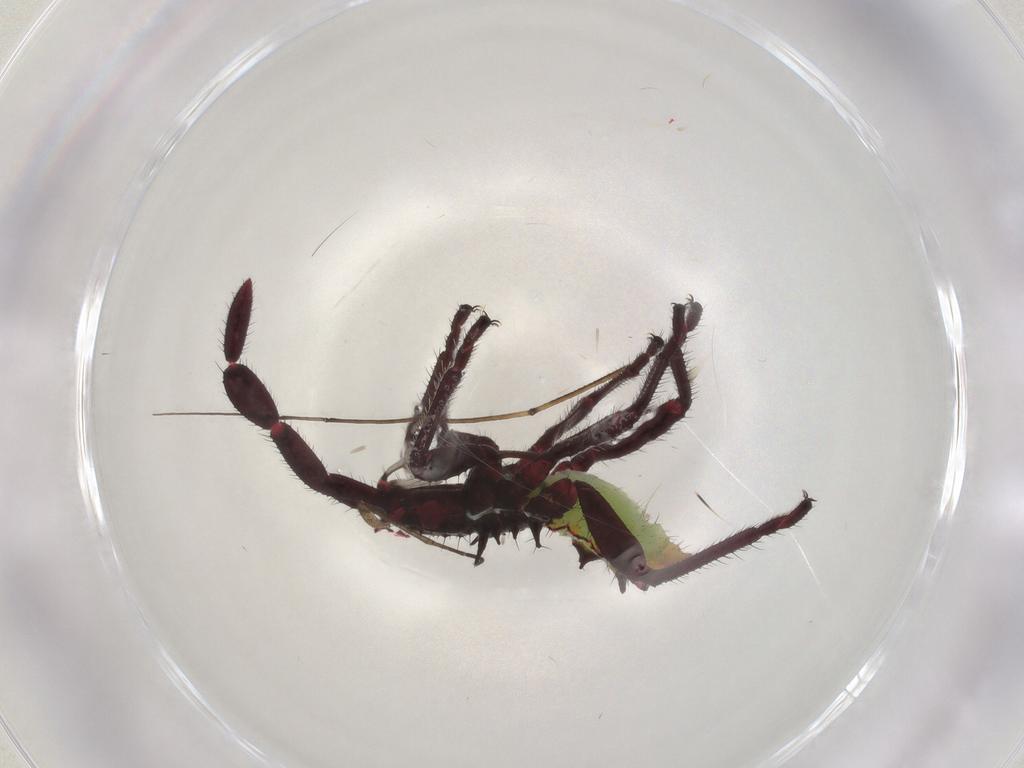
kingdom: Animalia
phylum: Arthropoda
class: Insecta
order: Hemiptera
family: Coreidae
